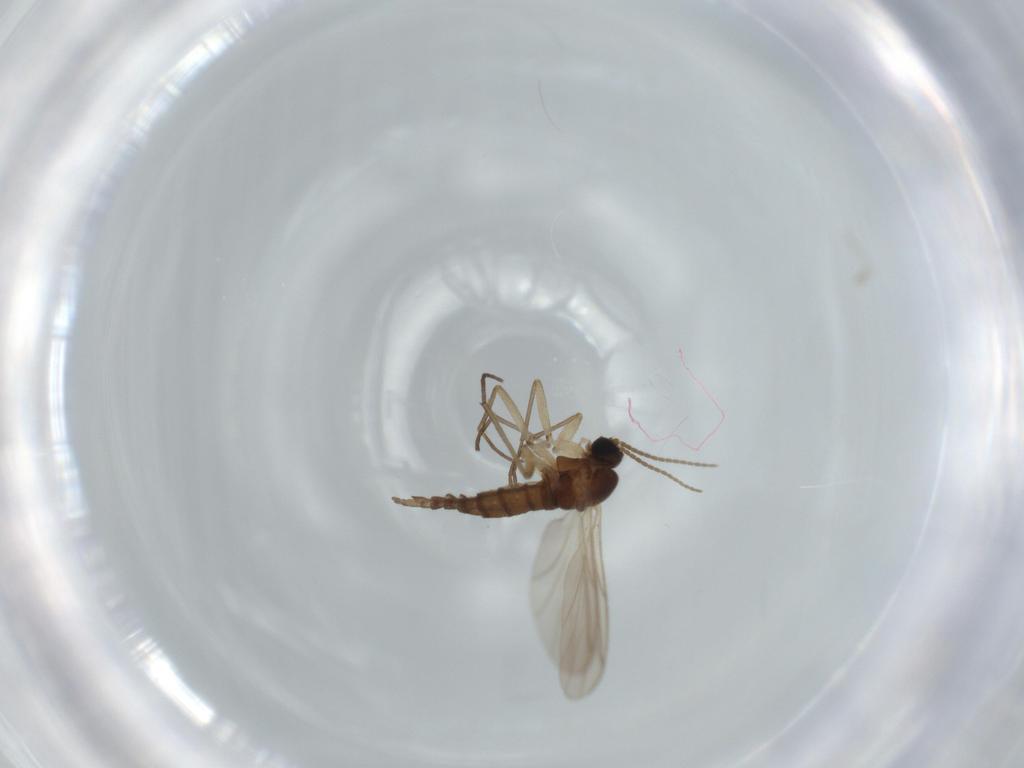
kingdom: Animalia
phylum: Arthropoda
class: Insecta
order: Diptera
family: Sciaridae
